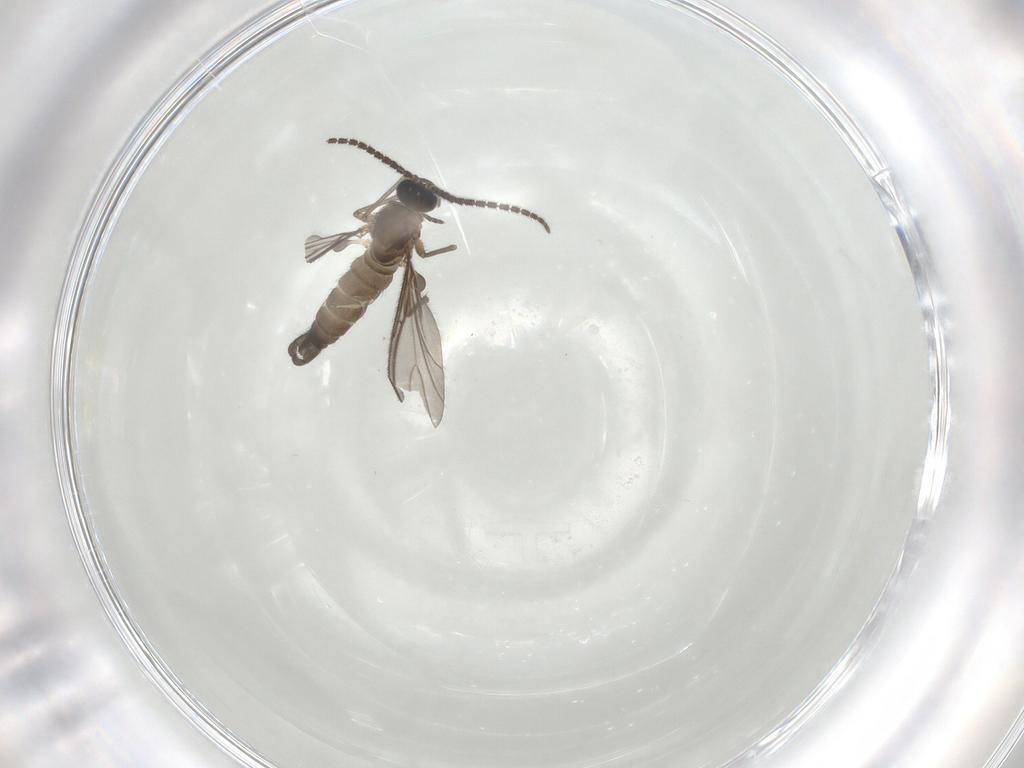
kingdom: Animalia
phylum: Arthropoda
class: Insecta
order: Diptera
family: Sciaridae
